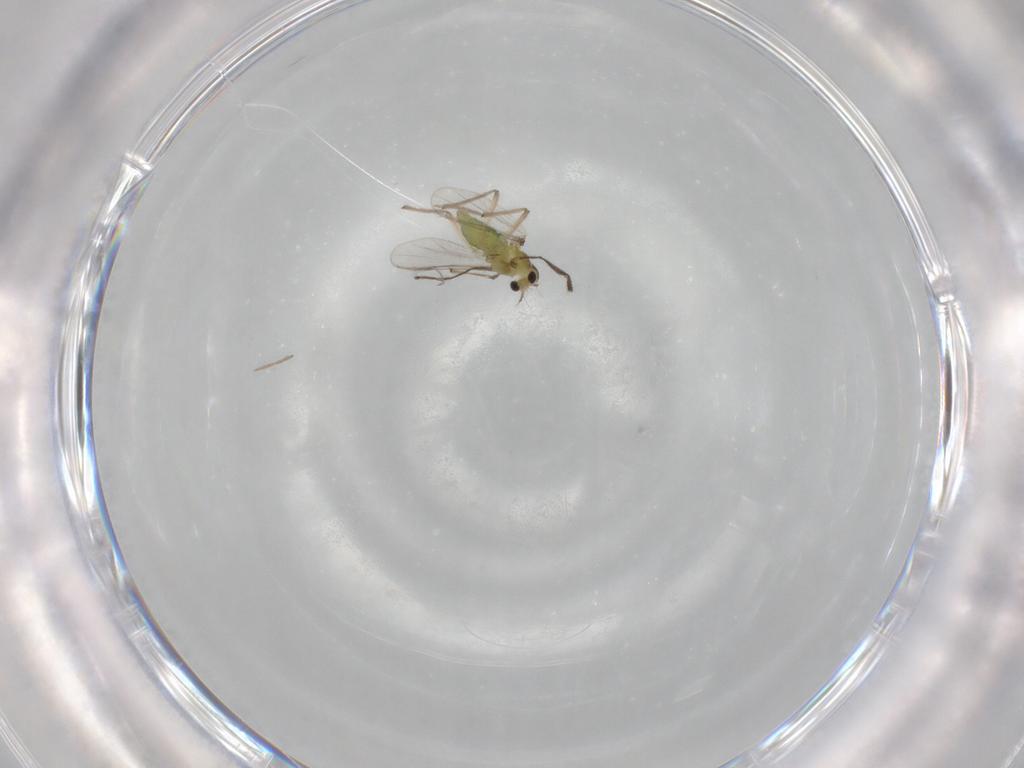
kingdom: Animalia
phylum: Arthropoda
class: Insecta
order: Diptera
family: Chironomidae
